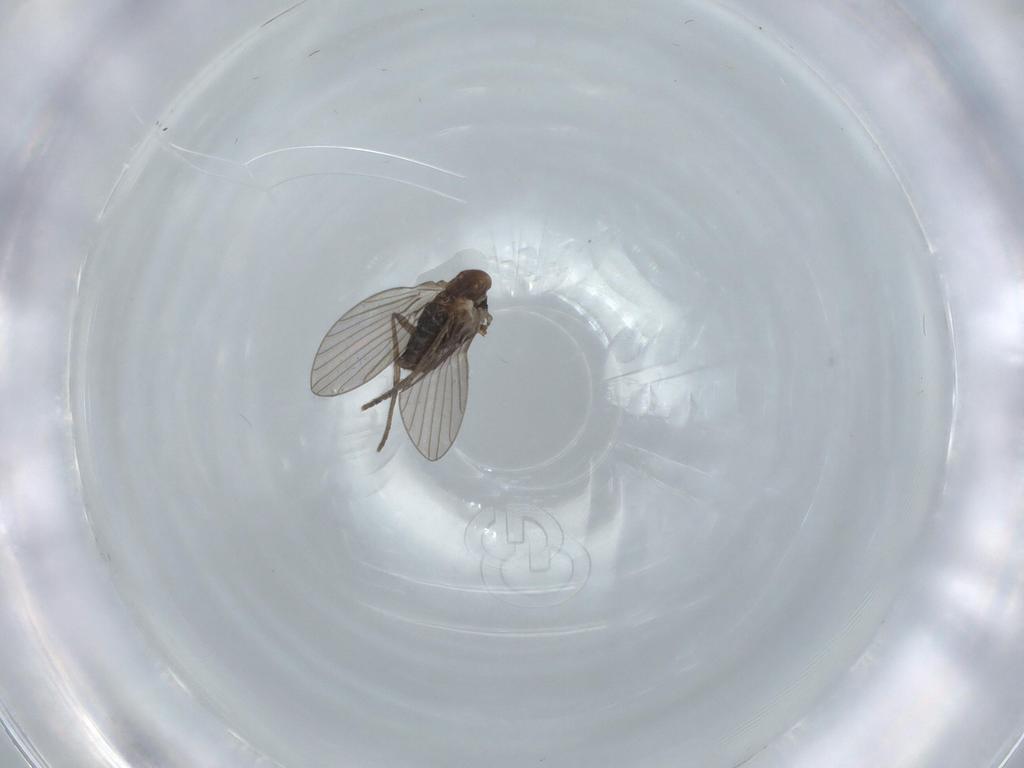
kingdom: Animalia
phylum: Arthropoda
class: Insecta
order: Diptera
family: Psychodidae
